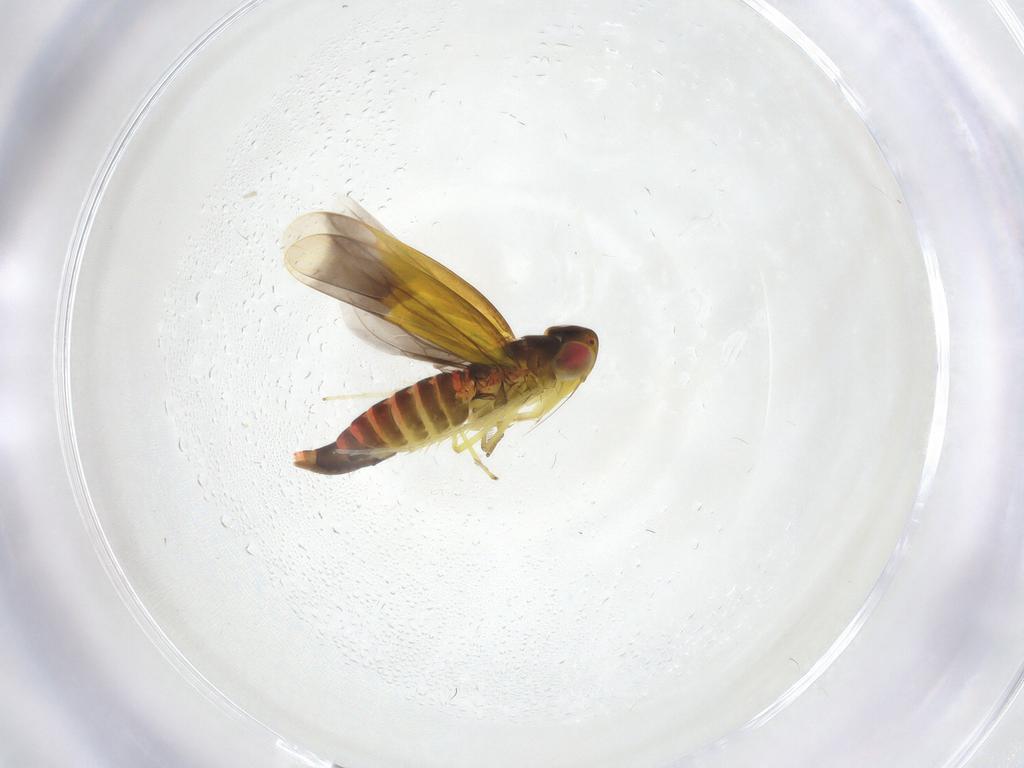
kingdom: Animalia
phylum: Arthropoda
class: Insecta
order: Hemiptera
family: Cicadellidae
